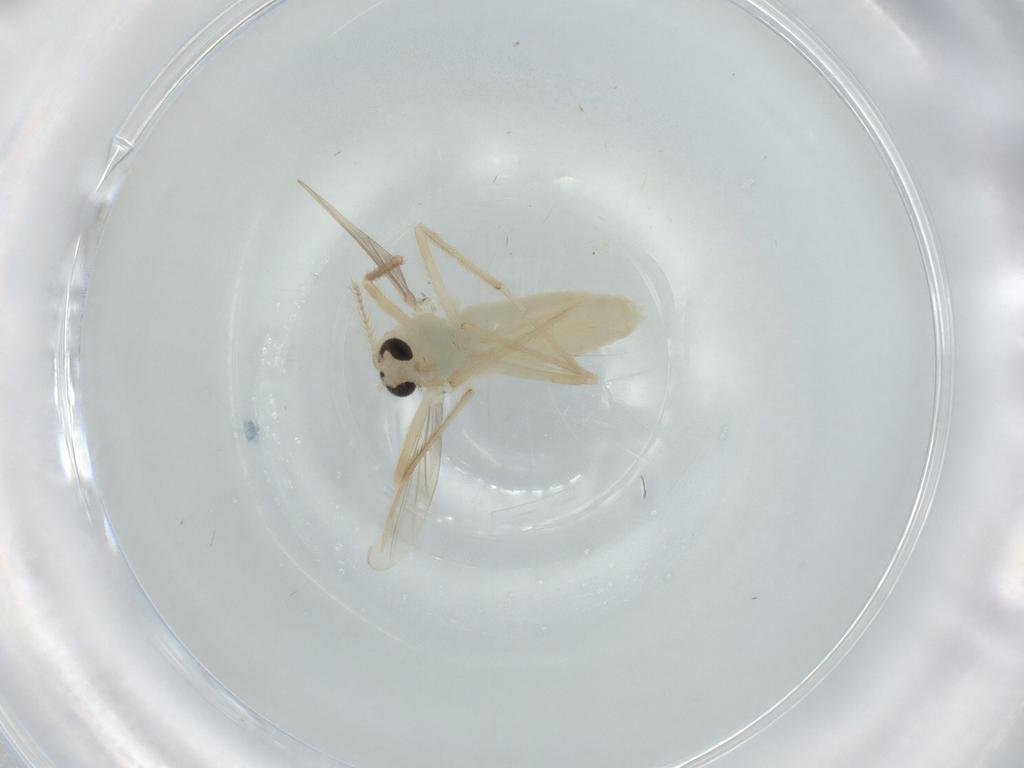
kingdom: Animalia
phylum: Arthropoda
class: Insecta
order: Diptera
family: Chironomidae
